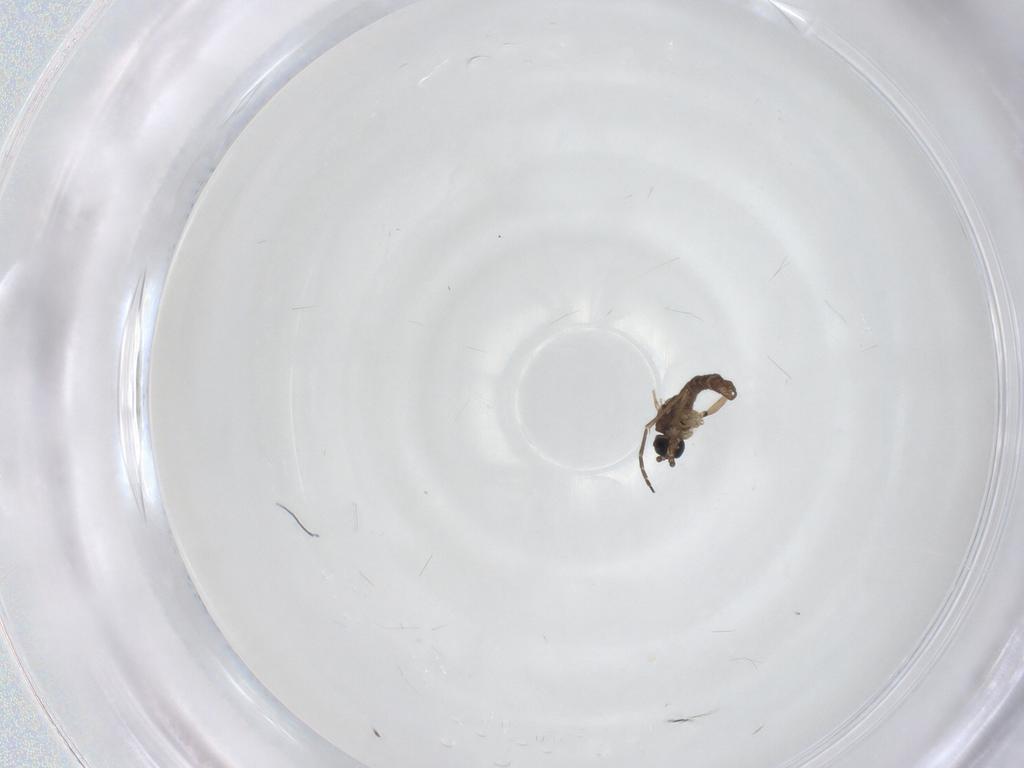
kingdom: Animalia
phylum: Arthropoda
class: Insecta
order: Diptera
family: Sciaridae
